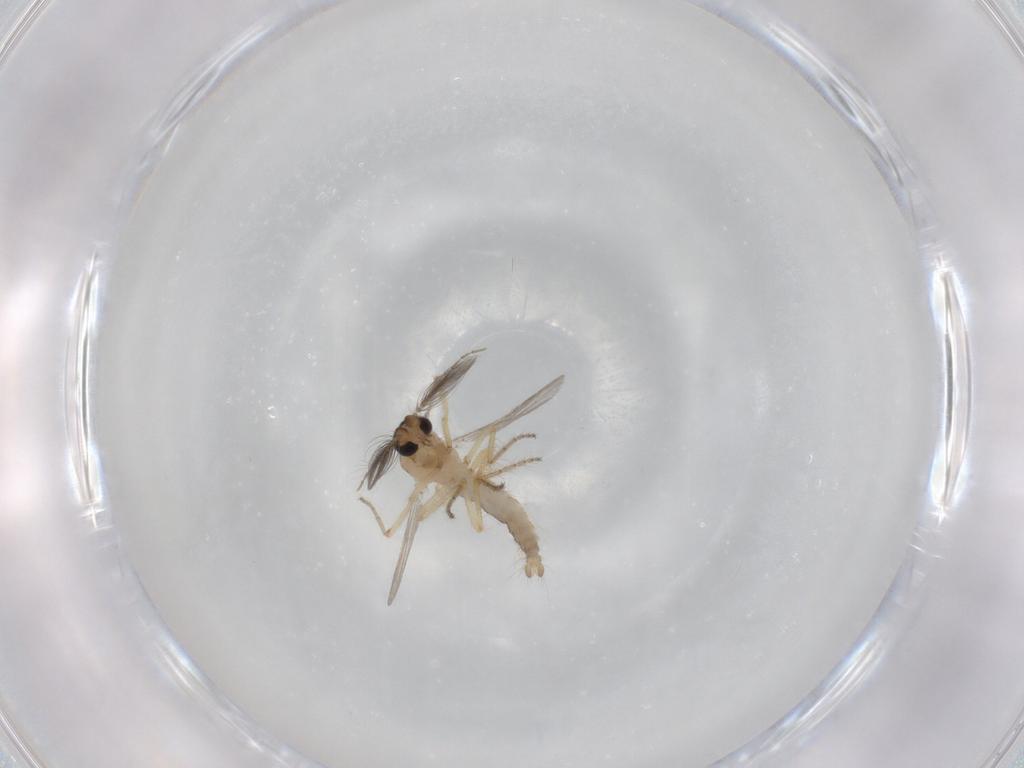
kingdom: Animalia
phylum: Arthropoda
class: Insecta
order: Diptera
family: Ceratopogonidae
